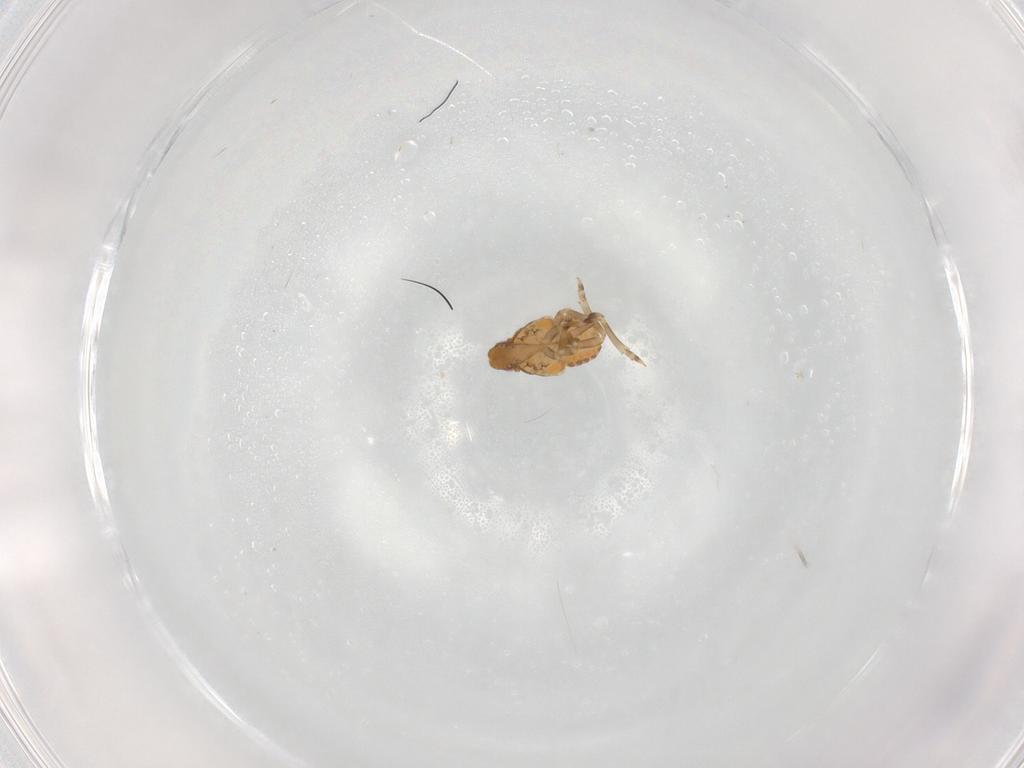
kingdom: Animalia
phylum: Arthropoda
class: Insecta
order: Hemiptera
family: Flatidae
